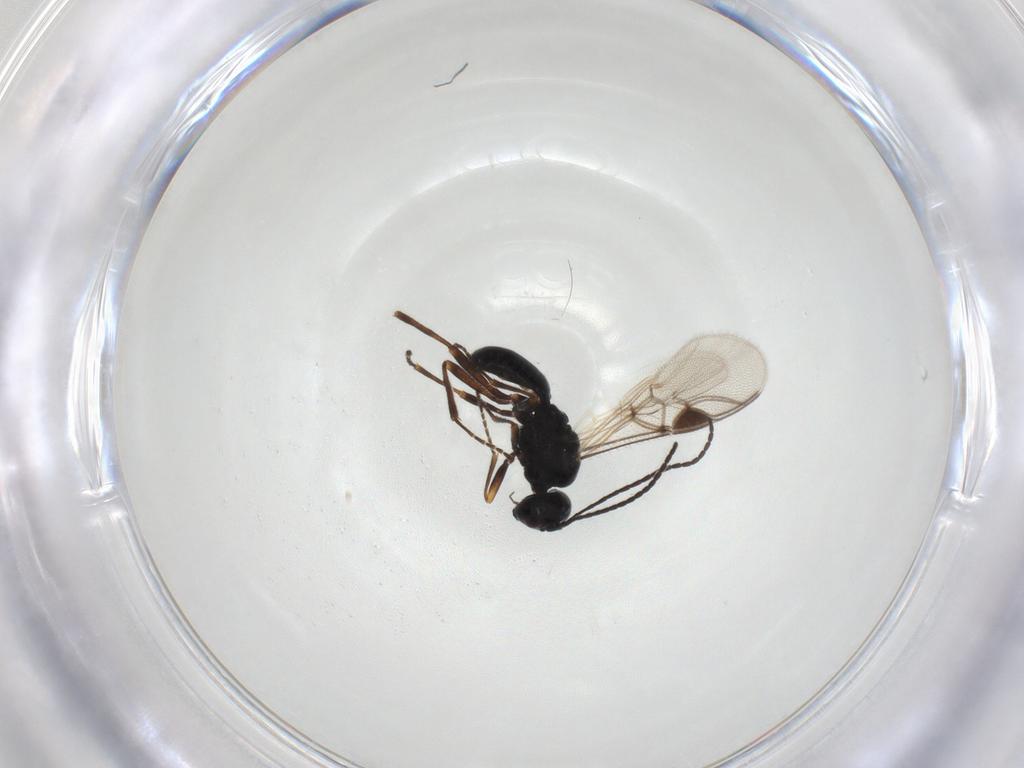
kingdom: Animalia
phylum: Arthropoda
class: Insecta
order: Hymenoptera
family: Braconidae
